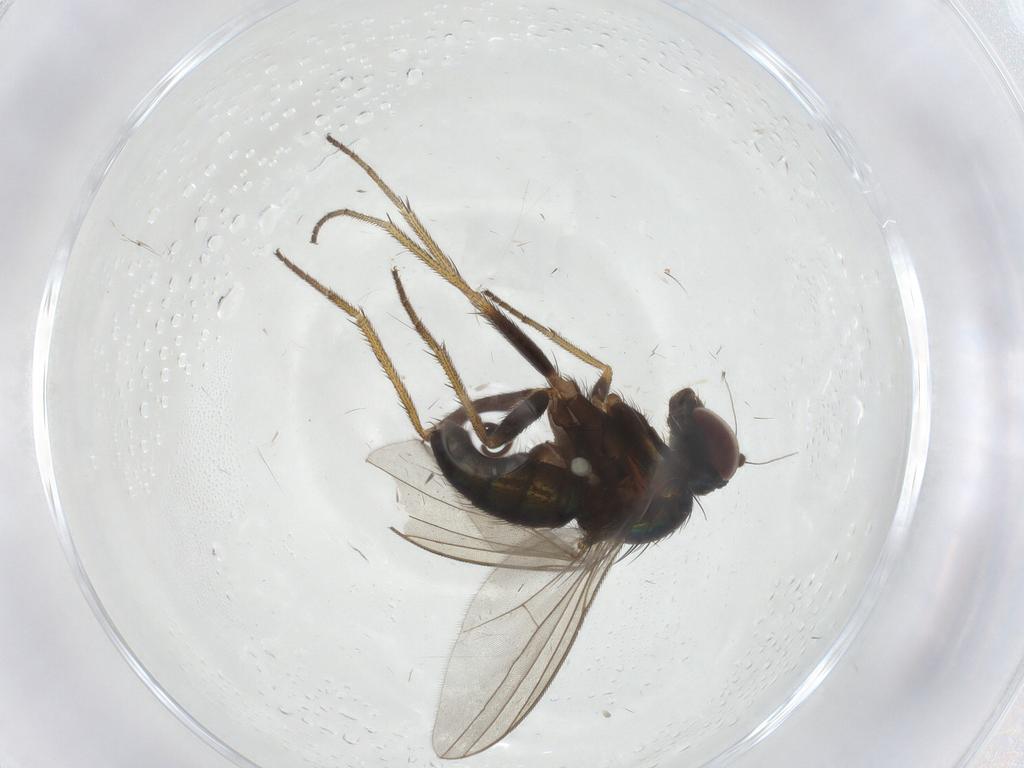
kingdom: Animalia
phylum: Arthropoda
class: Insecta
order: Diptera
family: Dolichopodidae
